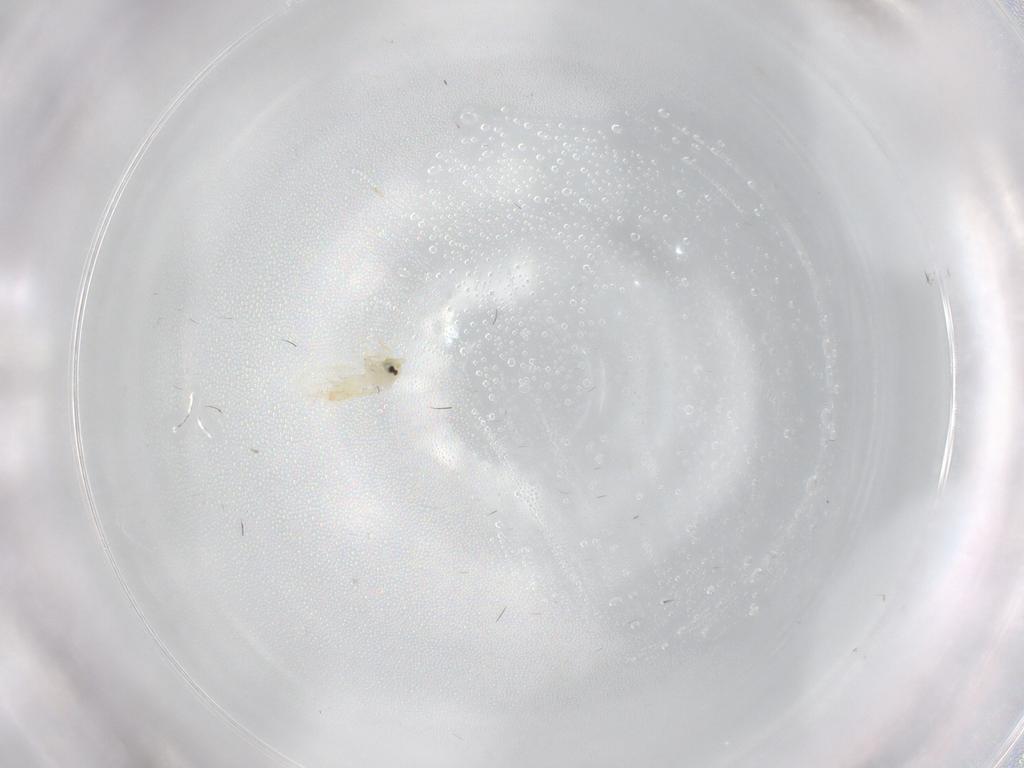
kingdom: Animalia
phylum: Arthropoda
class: Insecta
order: Hemiptera
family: Aleyrodidae
